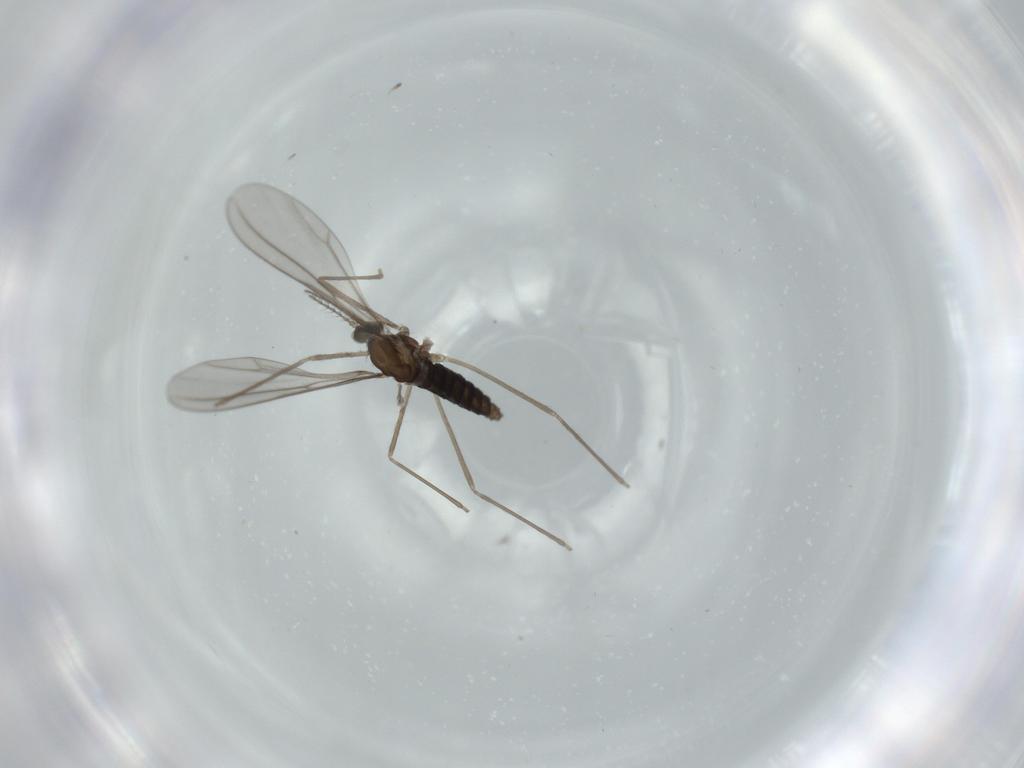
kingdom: Animalia
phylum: Arthropoda
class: Insecta
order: Diptera
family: Cecidomyiidae
